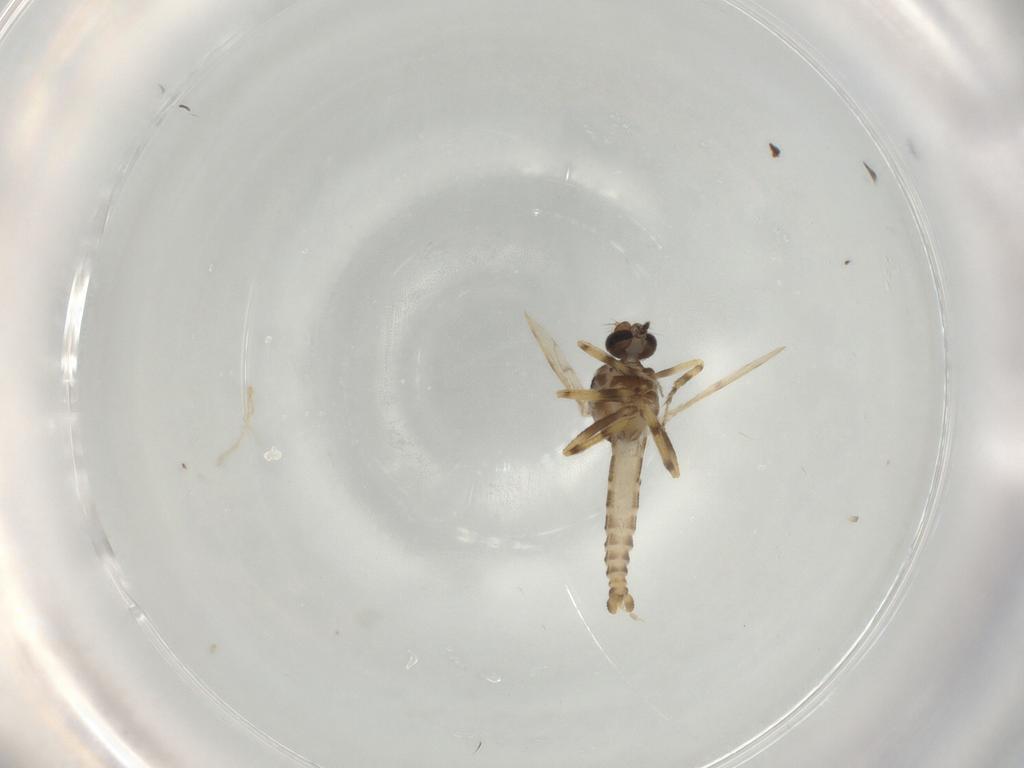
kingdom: Animalia
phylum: Arthropoda
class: Insecta
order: Diptera
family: Ceratopogonidae
